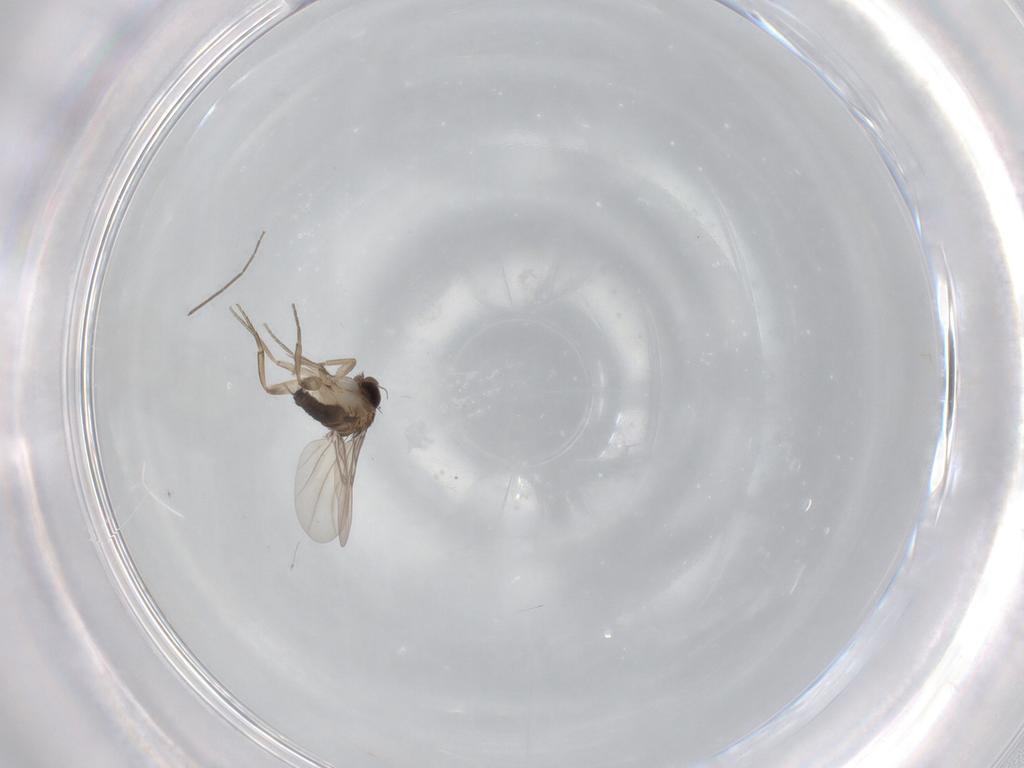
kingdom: Animalia
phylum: Arthropoda
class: Insecta
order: Diptera
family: Phoridae
